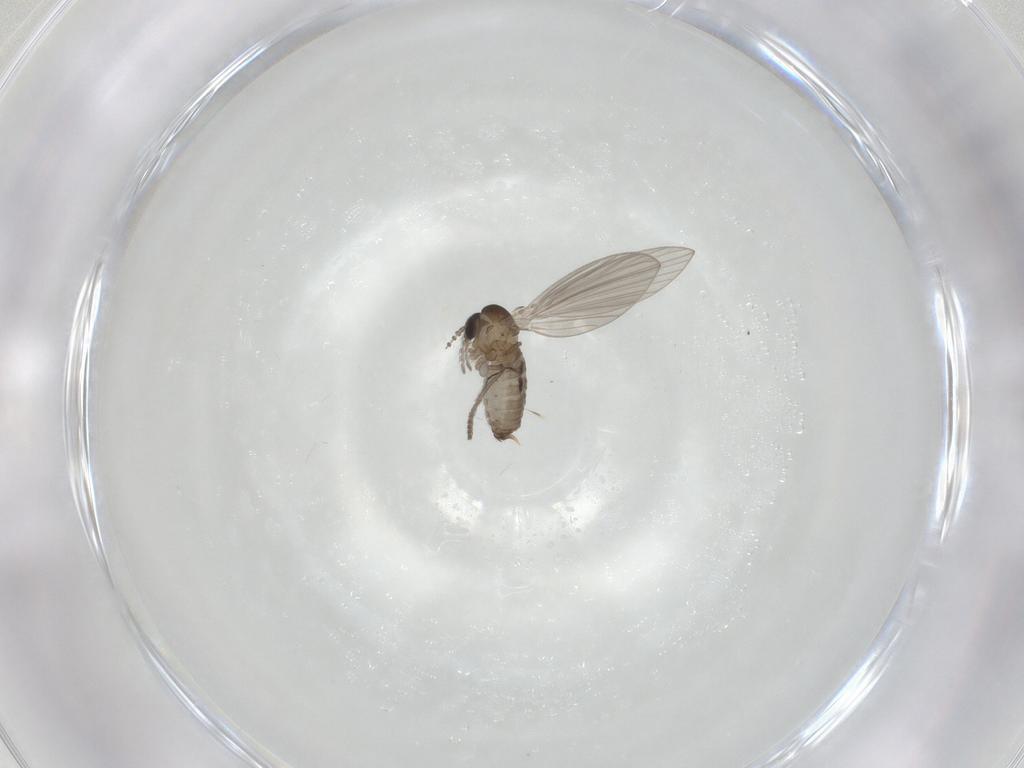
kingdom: Animalia
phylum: Arthropoda
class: Insecta
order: Diptera
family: Psychodidae
